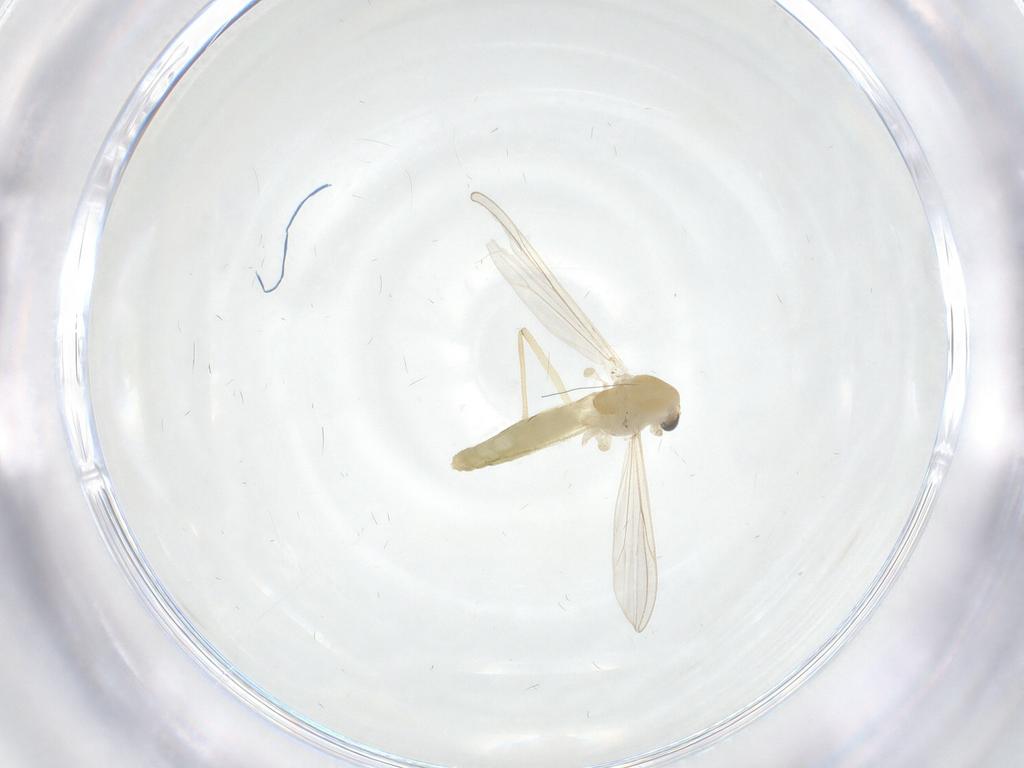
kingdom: Animalia
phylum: Arthropoda
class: Insecta
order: Diptera
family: Chironomidae
